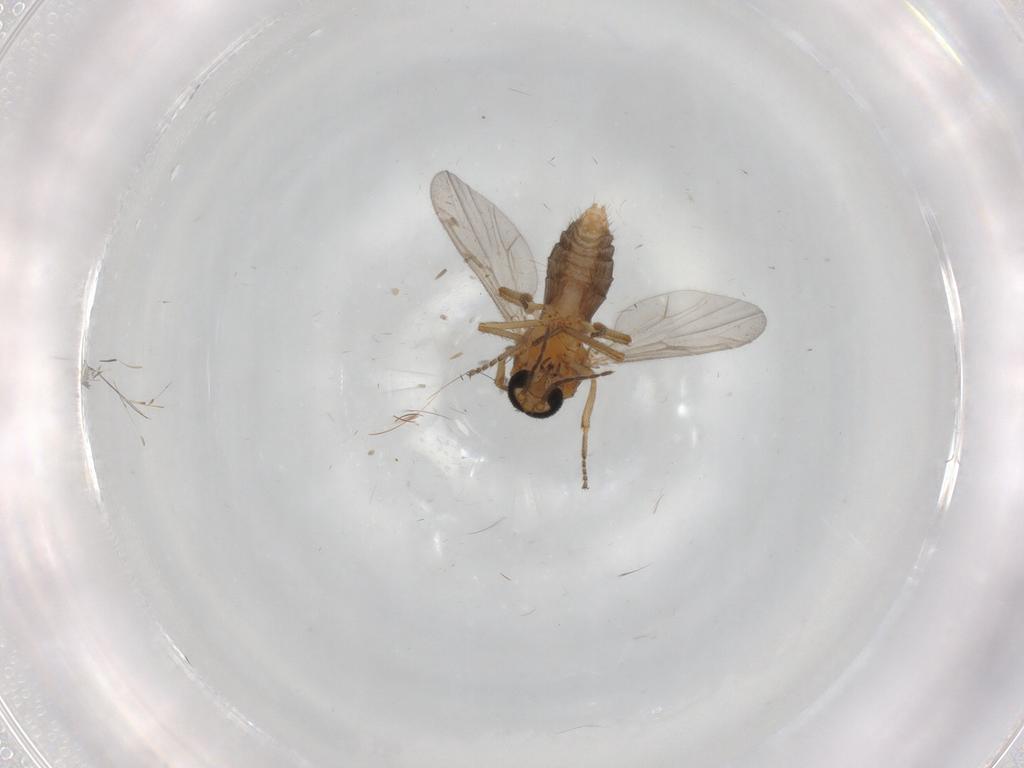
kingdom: Animalia
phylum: Arthropoda
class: Insecta
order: Diptera
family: Ceratopogonidae
